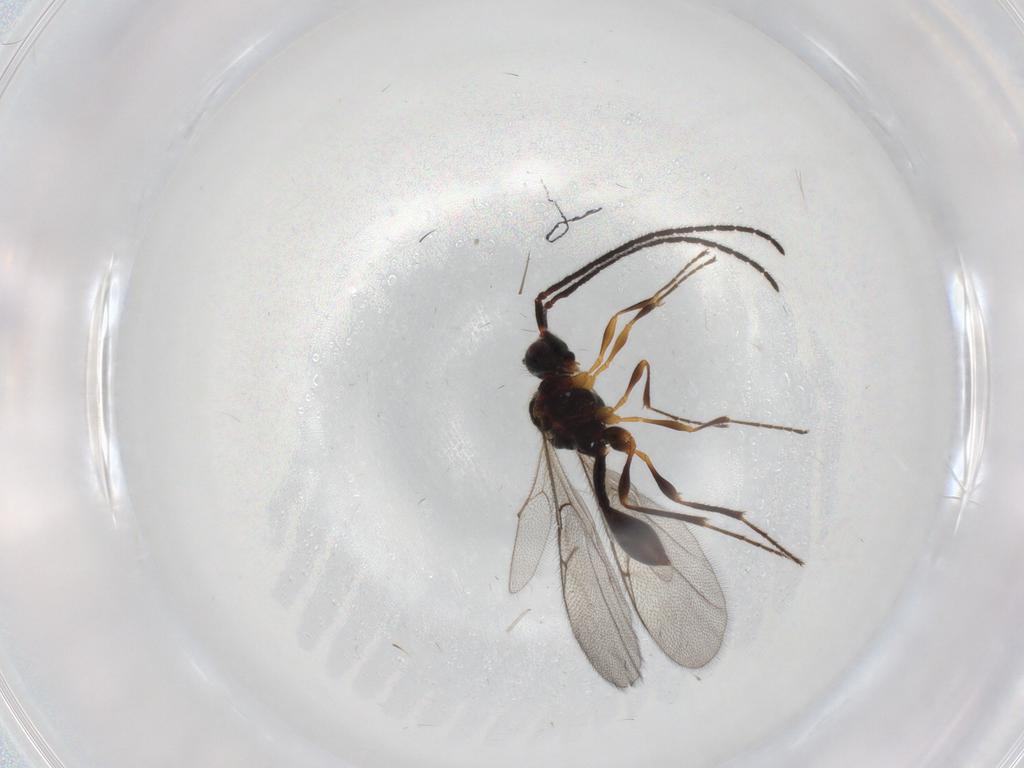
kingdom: Animalia
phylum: Arthropoda
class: Insecta
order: Hymenoptera
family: Diapriidae
